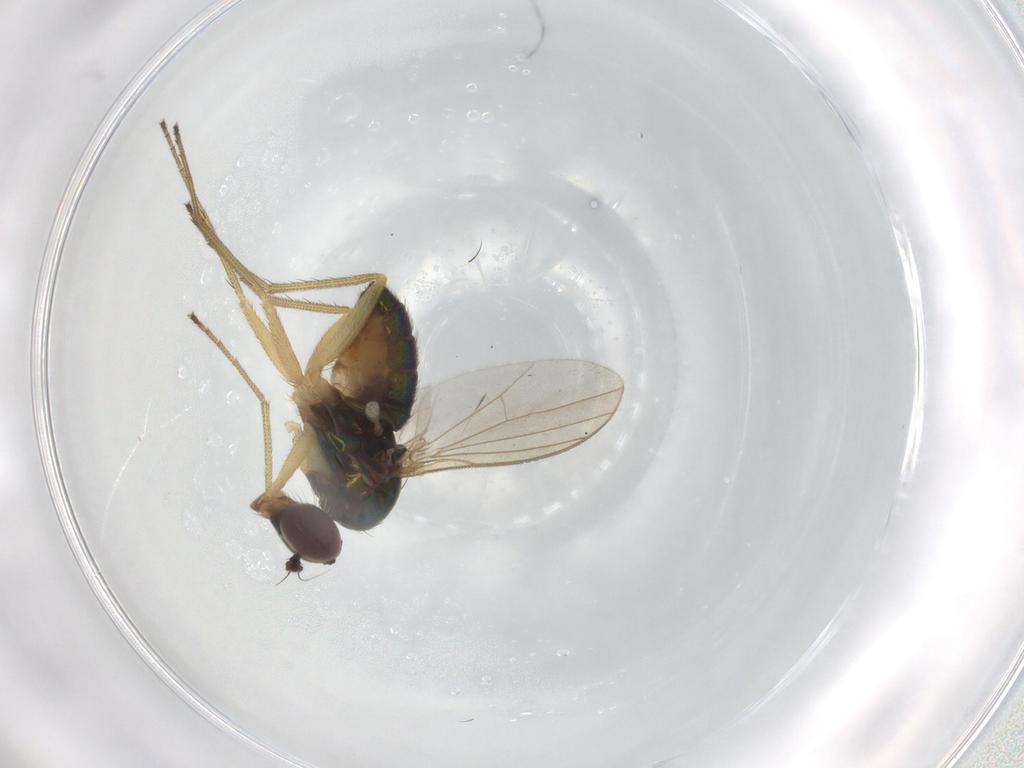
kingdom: Animalia
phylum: Arthropoda
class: Insecta
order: Diptera
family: Dolichopodidae
